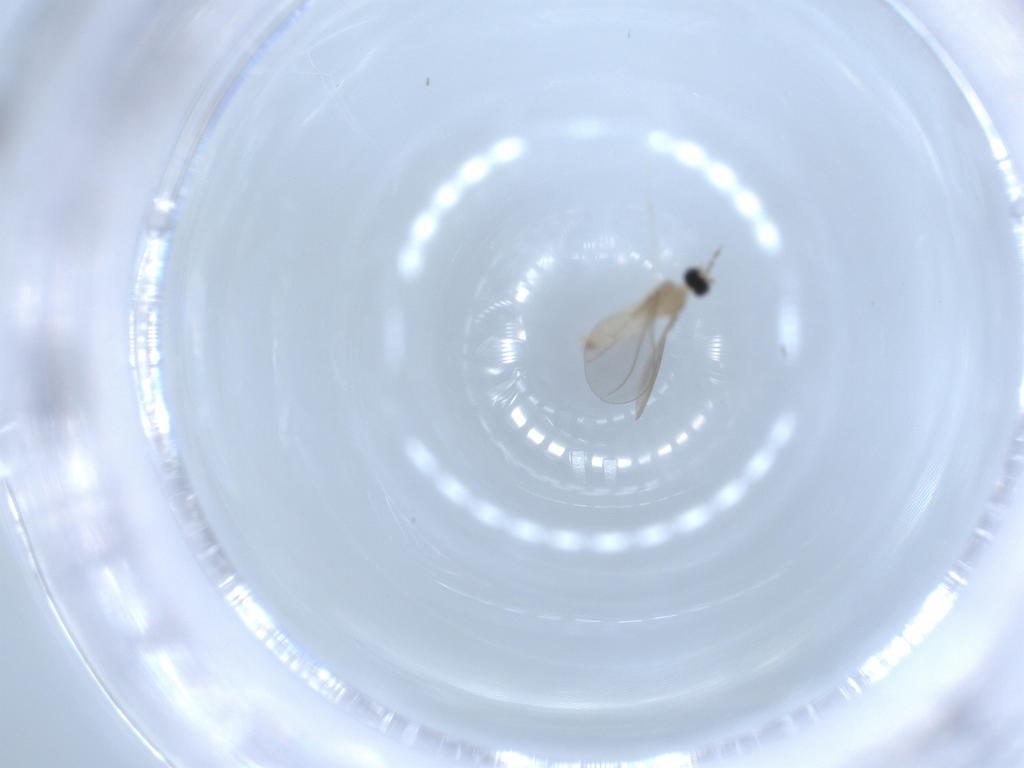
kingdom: Animalia
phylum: Arthropoda
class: Insecta
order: Diptera
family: Cecidomyiidae
